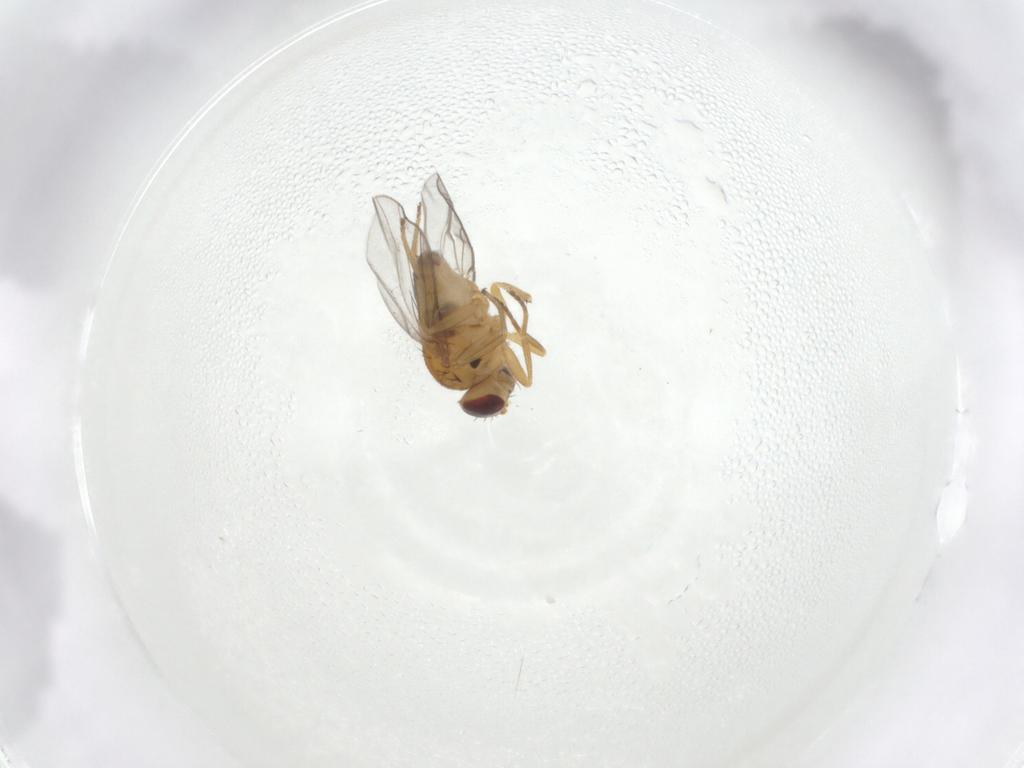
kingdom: Animalia
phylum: Arthropoda
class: Insecta
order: Diptera
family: Chloropidae
